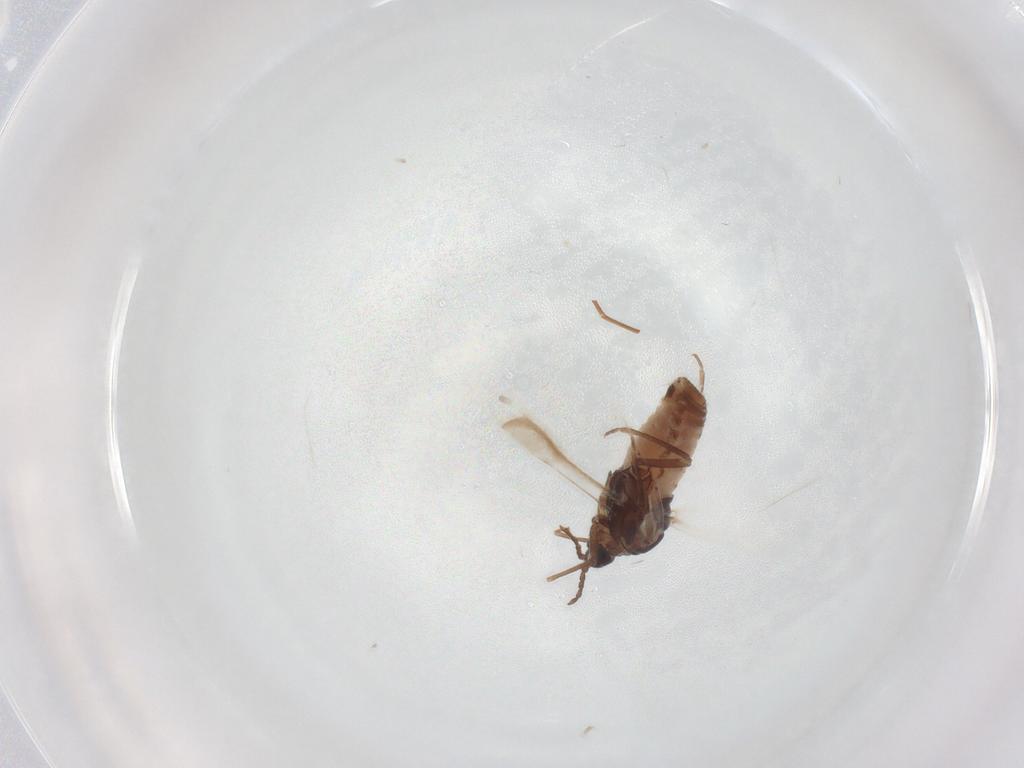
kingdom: Animalia
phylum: Arthropoda
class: Insecta
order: Hemiptera
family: Aphididae
